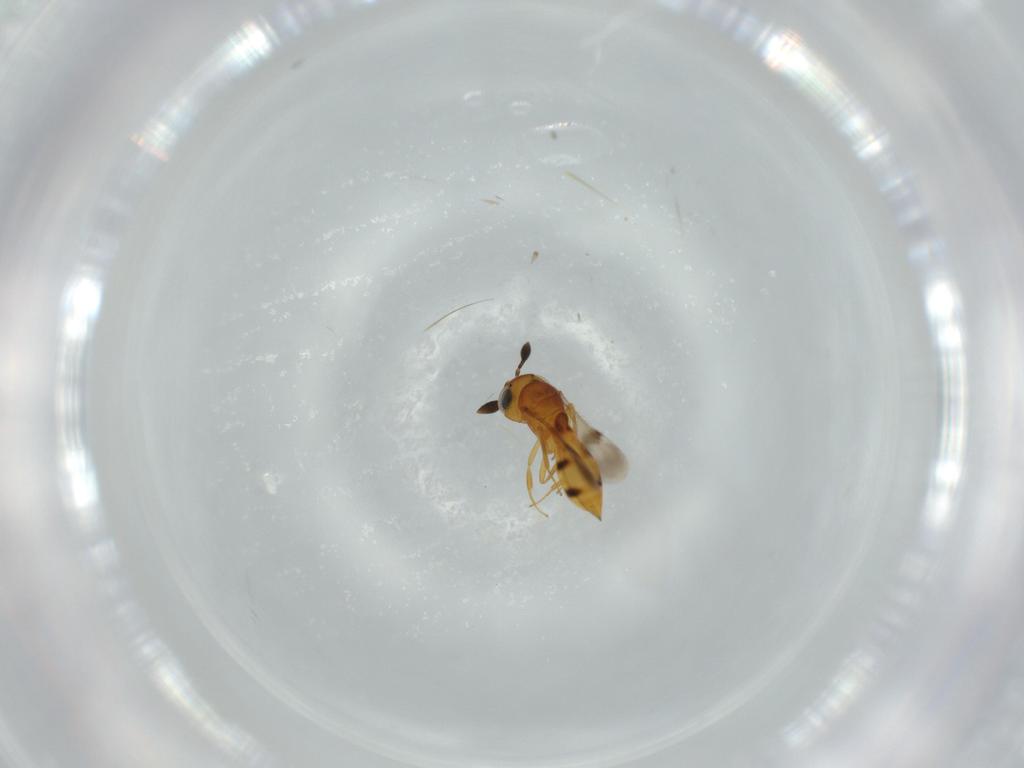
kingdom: Animalia
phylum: Arthropoda
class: Insecta
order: Hymenoptera
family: Scelionidae
